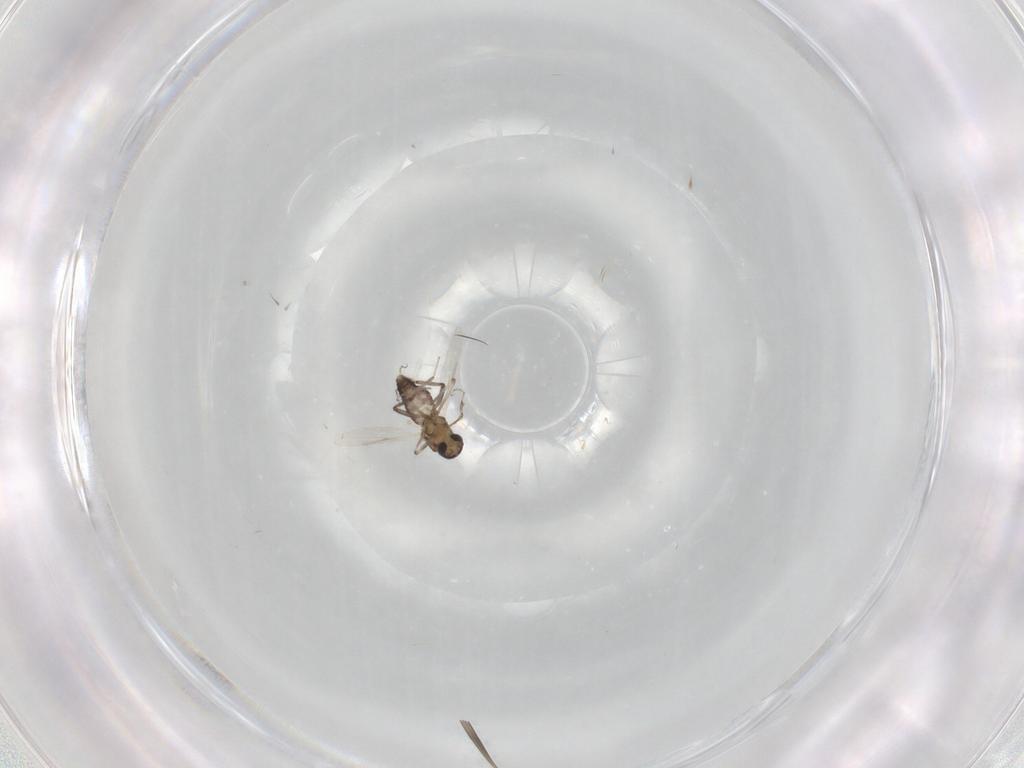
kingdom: Animalia
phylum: Arthropoda
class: Insecta
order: Diptera
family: Ceratopogonidae
